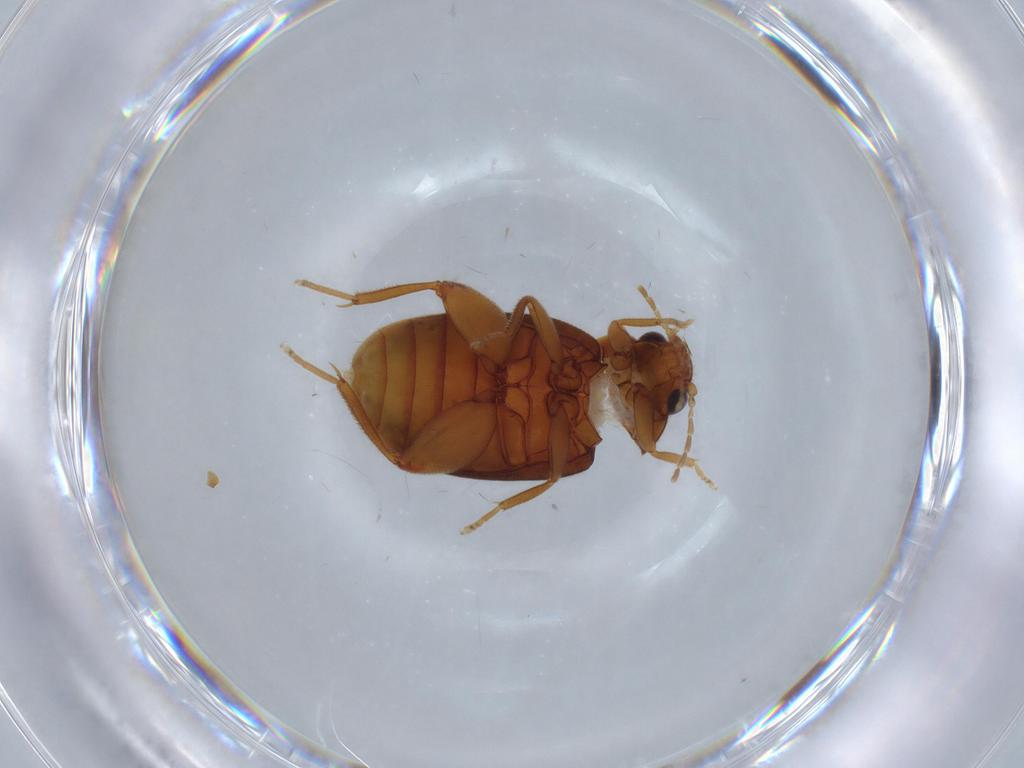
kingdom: Animalia
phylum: Arthropoda
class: Insecta
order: Coleoptera
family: Scirtidae
